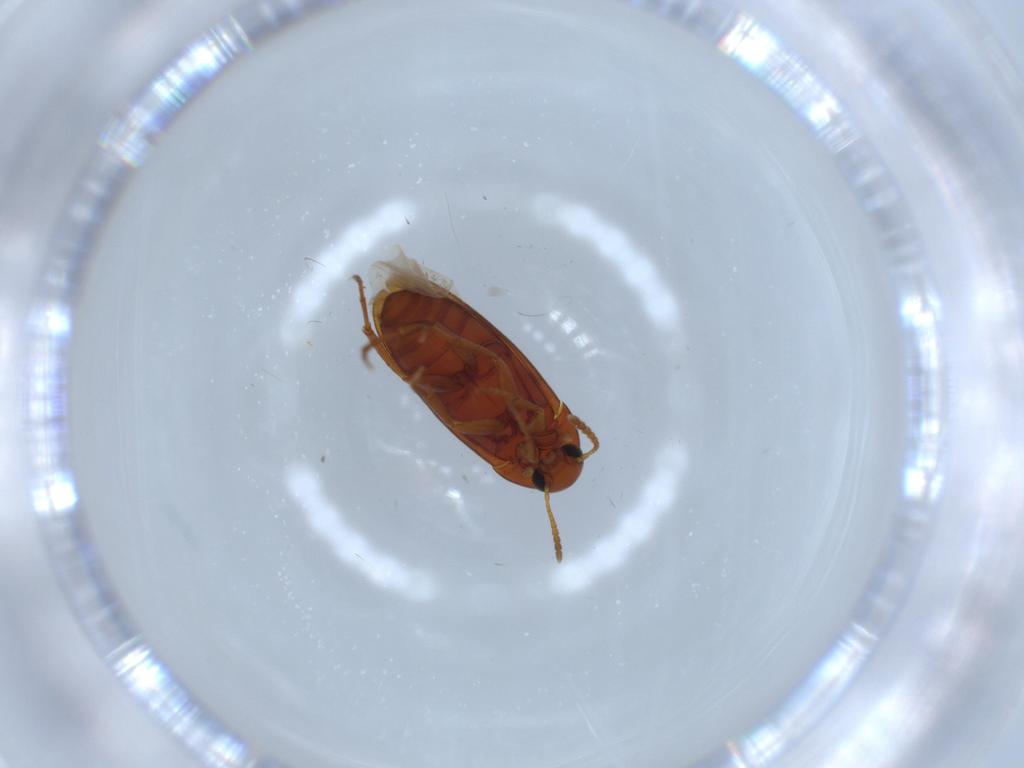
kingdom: Animalia
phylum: Arthropoda
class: Insecta
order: Coleoptera
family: Scraptiidae
